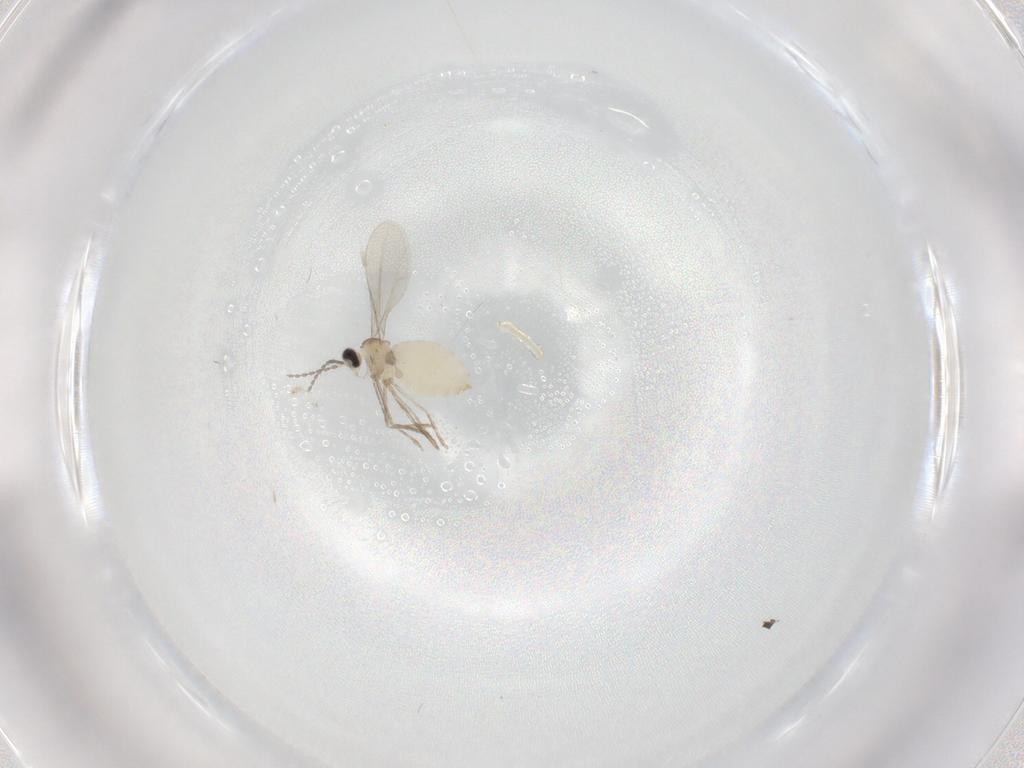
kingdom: Animalia
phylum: Arthropoda
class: Insecta
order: Diptera
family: Cecidomyiidae
